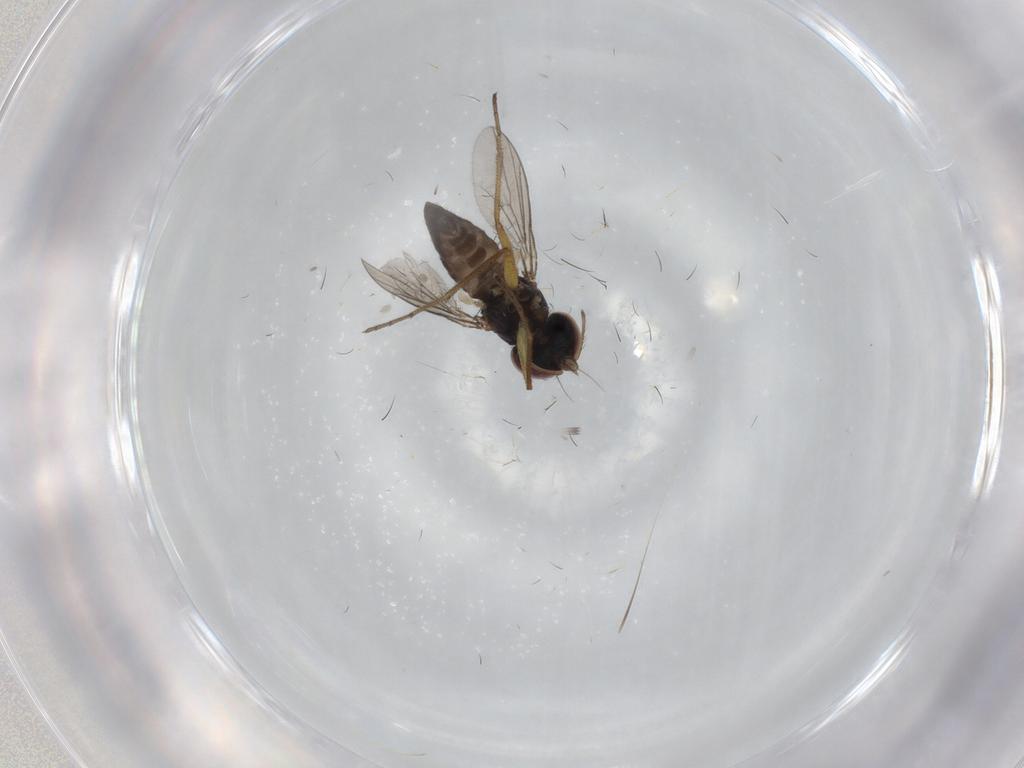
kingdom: Animalia
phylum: Arthropoda
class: Insecta
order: Diptera
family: Dolichopodidae
